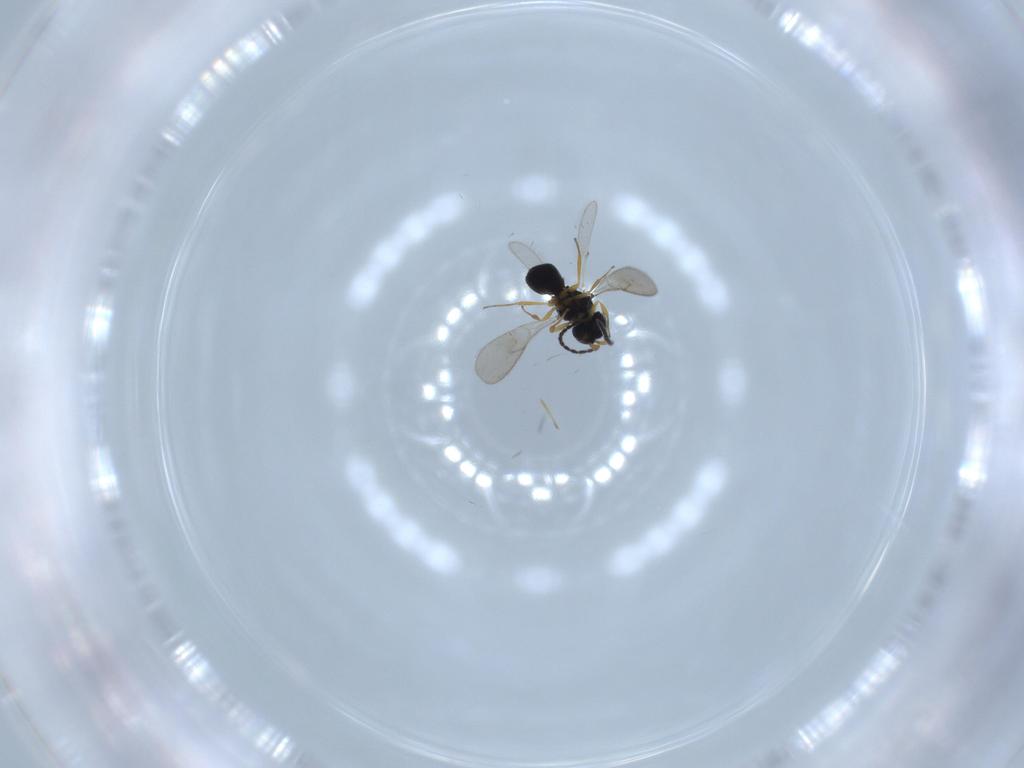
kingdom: Animalia
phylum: Arthropoda
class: Insecta
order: Hymenoptera
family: Scelionidae
